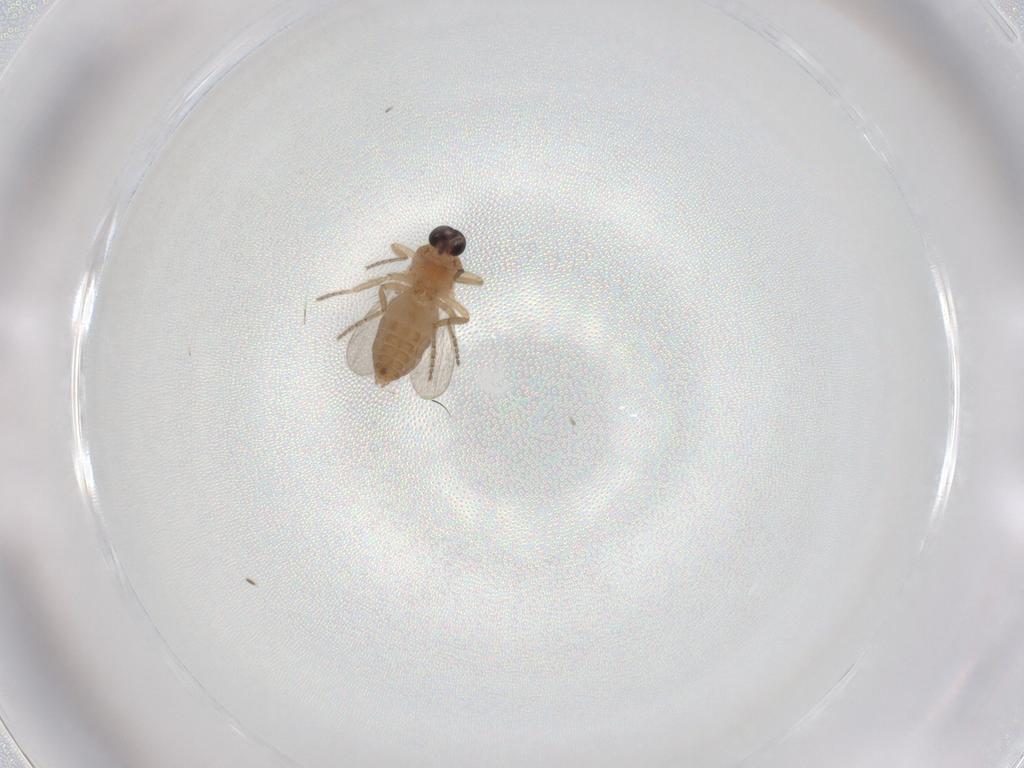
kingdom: Animalia
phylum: Arthropoda
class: Insecta
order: Diptera
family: Ceratopogonidae
